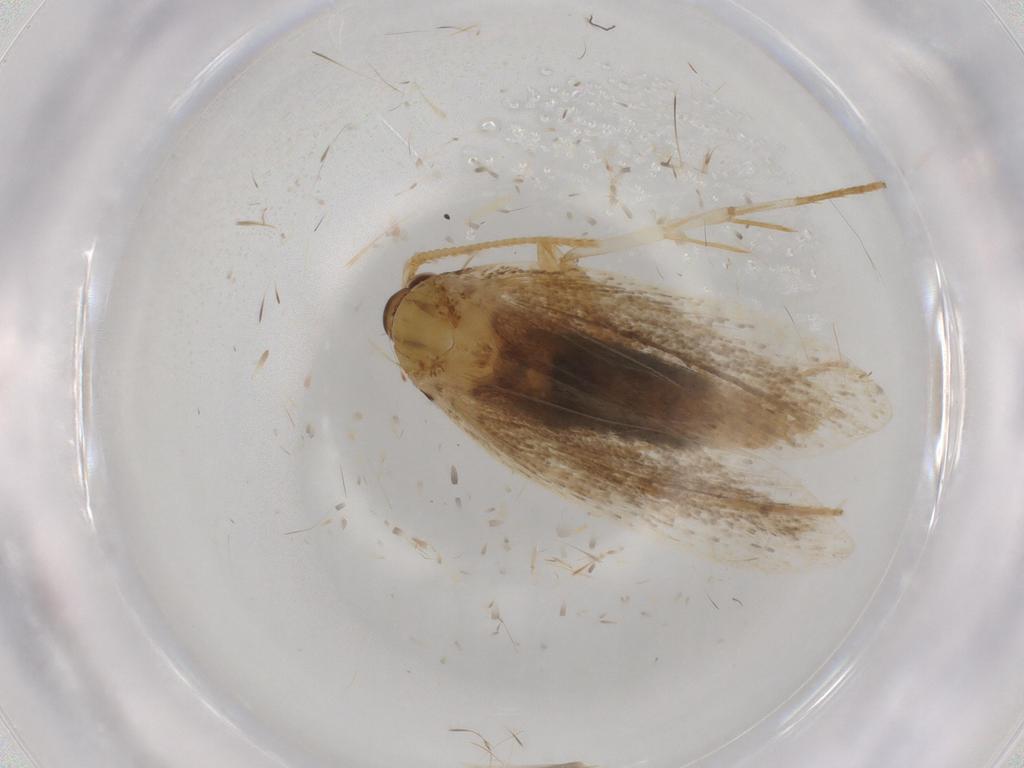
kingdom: Animalia
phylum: Arthropoda
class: Insecta
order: Lepidoptera
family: Lecithoceridae
